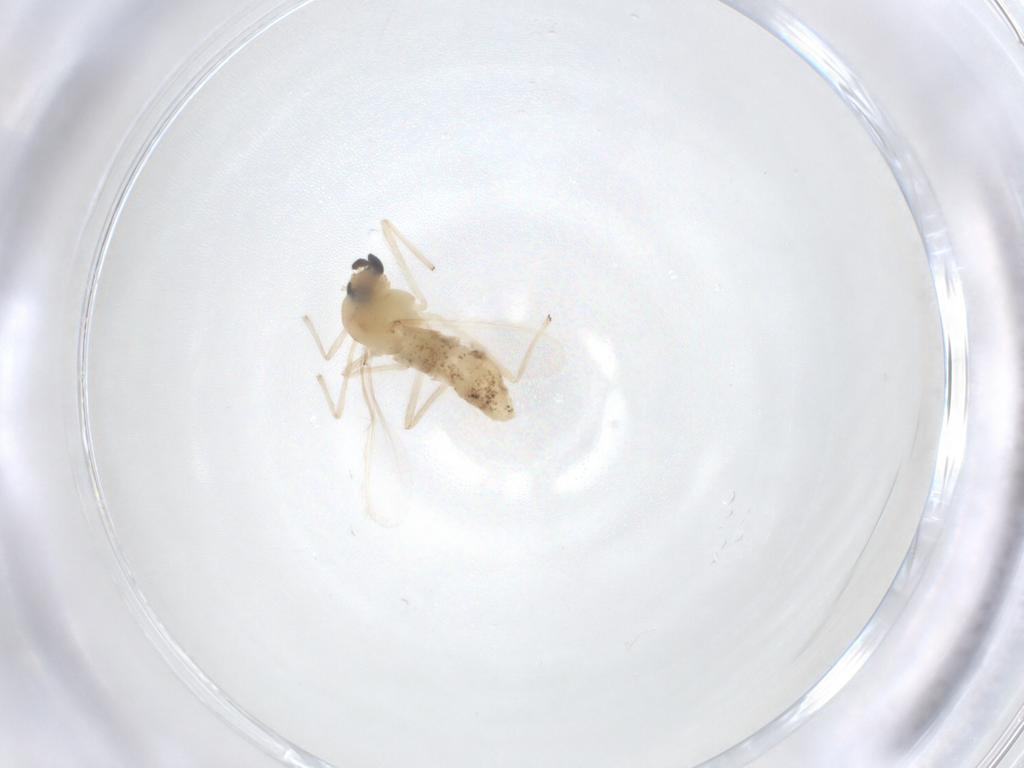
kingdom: Animalia
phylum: Arthropoda
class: Insecta
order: Diptera
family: Chironomidae
